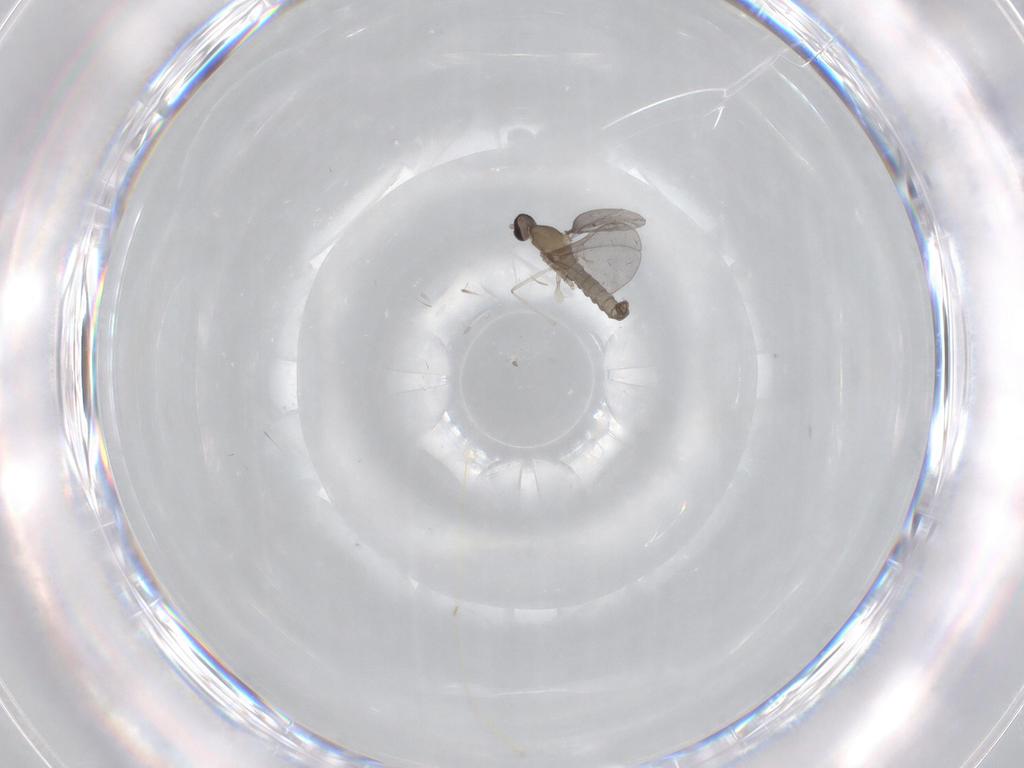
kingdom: Animalia
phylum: Arthropoda
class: Insecta
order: Diptera
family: Cecidomyiidae
